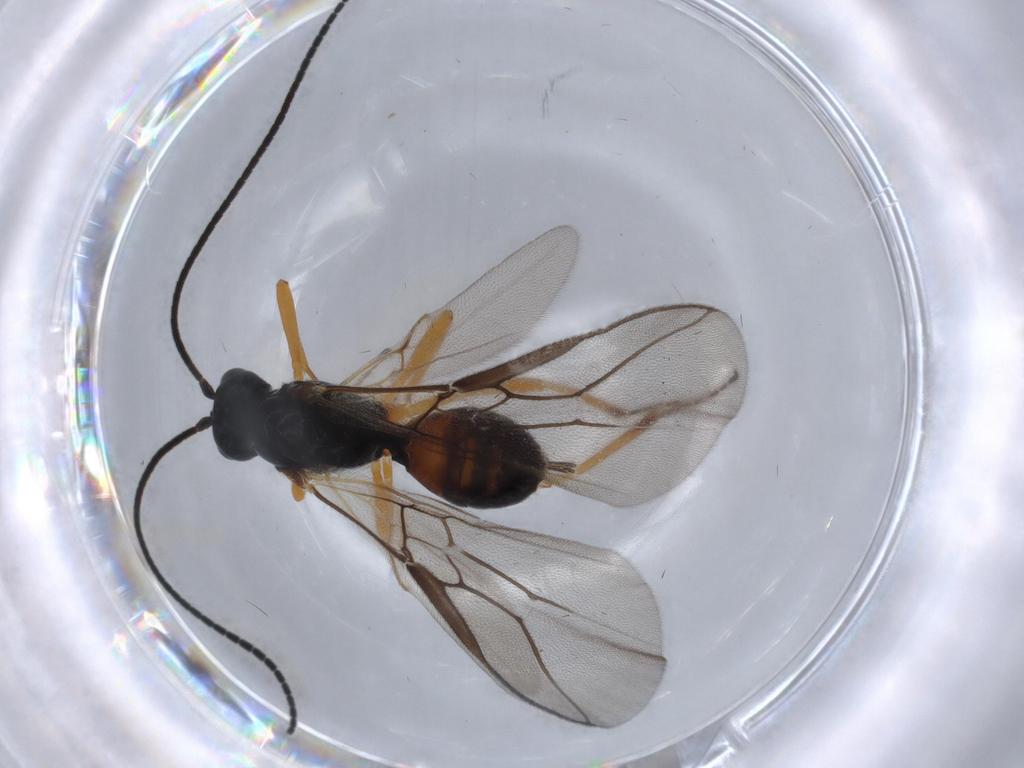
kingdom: Animalia
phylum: Arthropoda
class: Insecta
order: Hymenoptera
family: Braconidae
